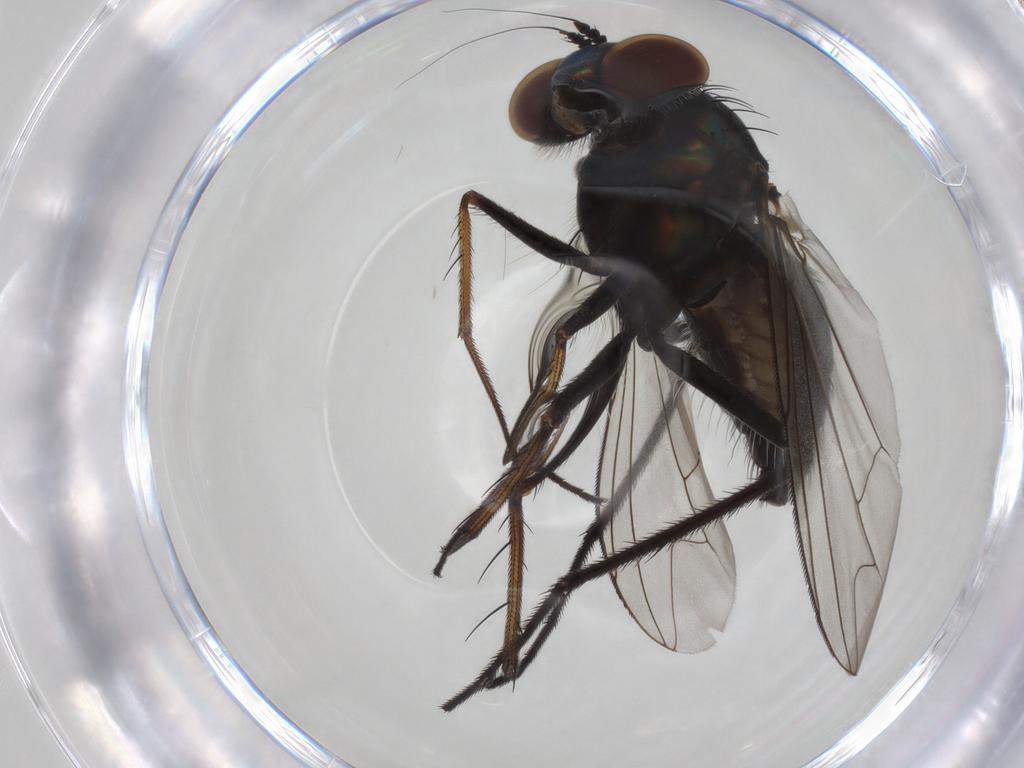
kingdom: Animalia
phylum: Arthropoda
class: Insecta
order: Diptera
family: Dolichopodidae
